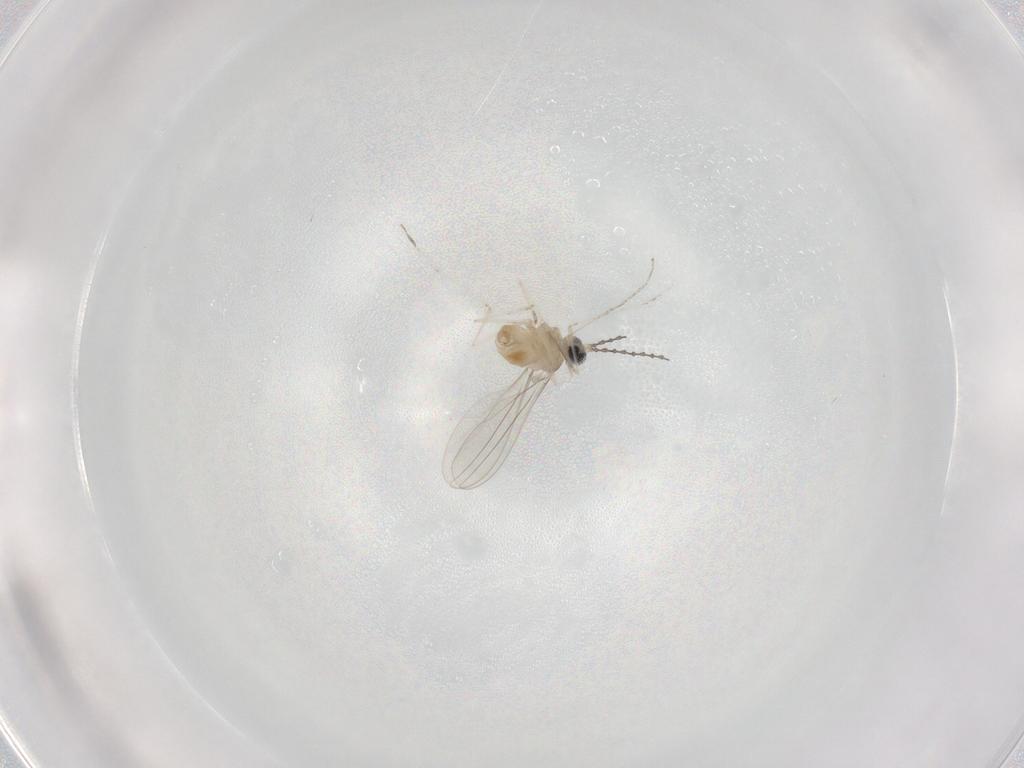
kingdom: Animalia
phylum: Arthropoda
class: Insecta
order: Diptera
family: Cecidomyiidae
